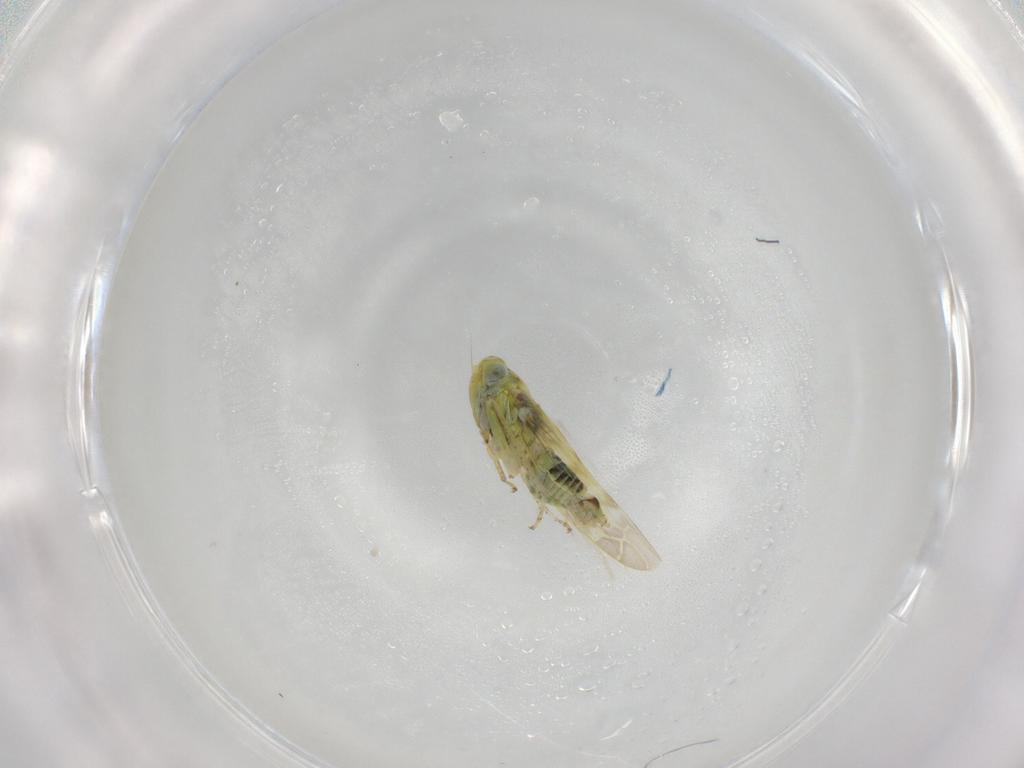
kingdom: Animalia
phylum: Arthropoda
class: Insecta
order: Hemiptera
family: Cicadellidae
